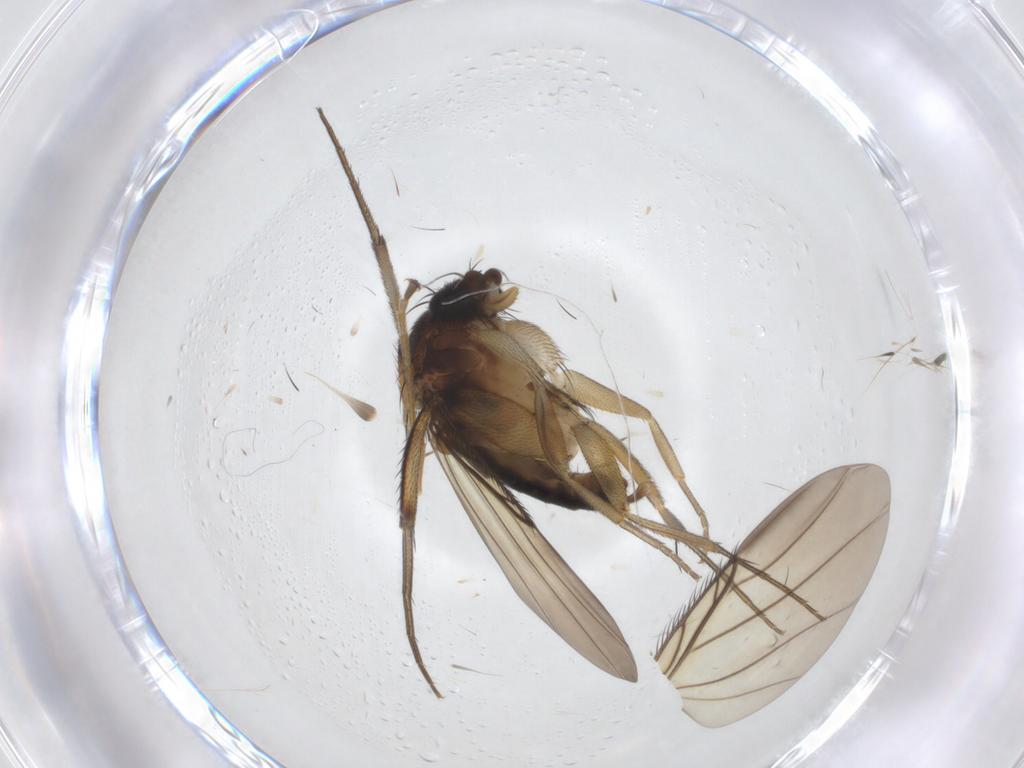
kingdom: Animalia
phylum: Arthropoda
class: Insecta
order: Diptera
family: Phoridae
